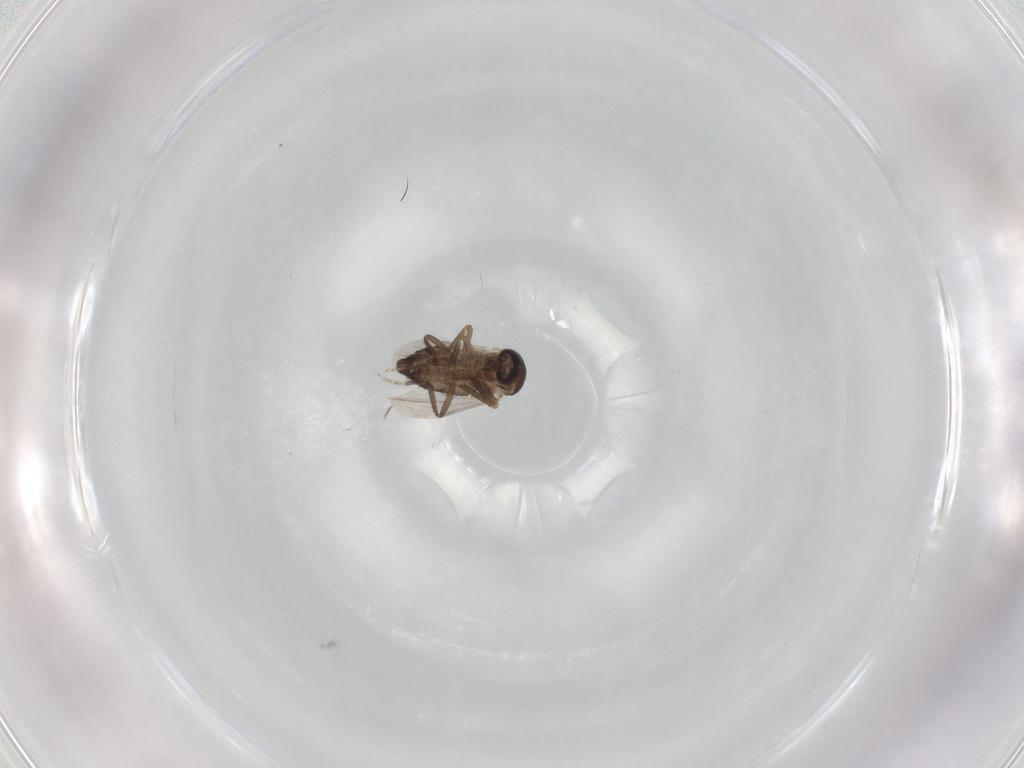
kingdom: Animalia
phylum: Arthropoda
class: Insecta
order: Diptera
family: Ceratopogonidae
